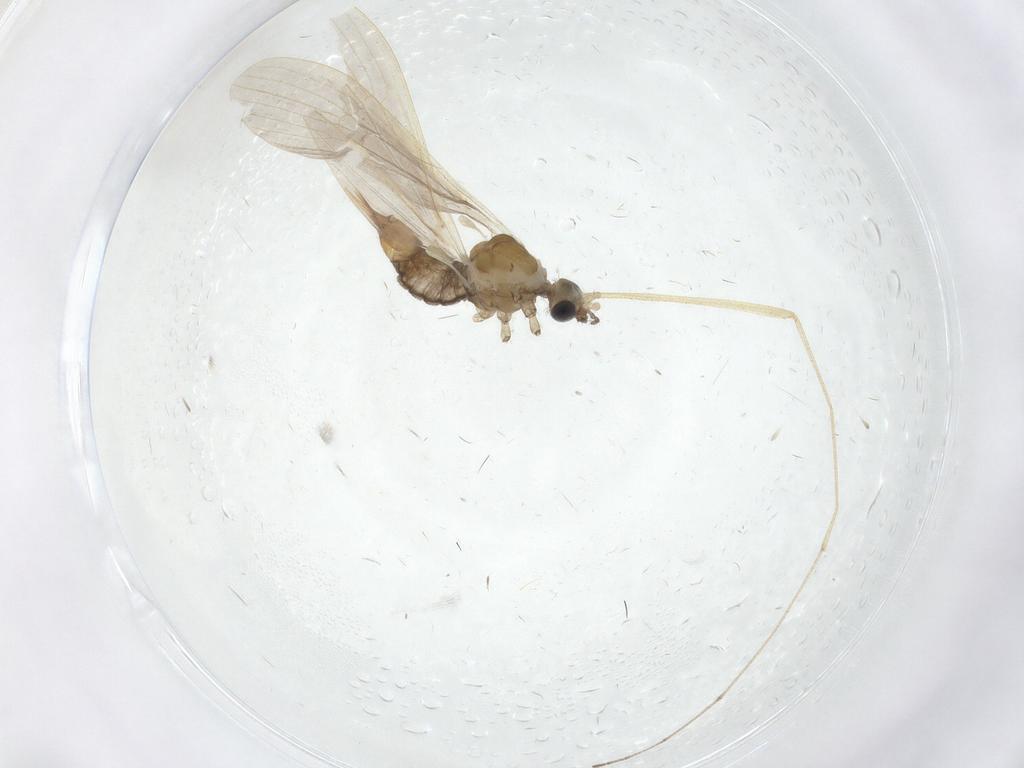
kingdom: Animalia
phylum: Arthropoda
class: Insecta
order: Diptera
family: Limoniidae
